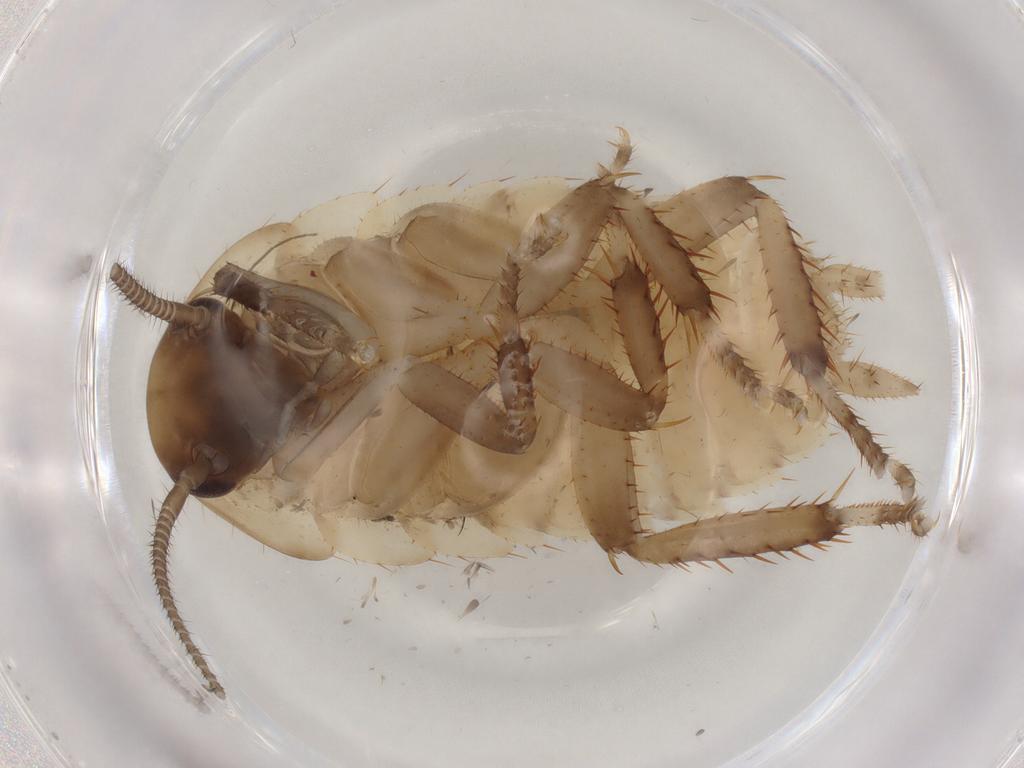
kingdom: Animalia
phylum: Arthropoda
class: Insecta
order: Blattodea
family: Blattidae
